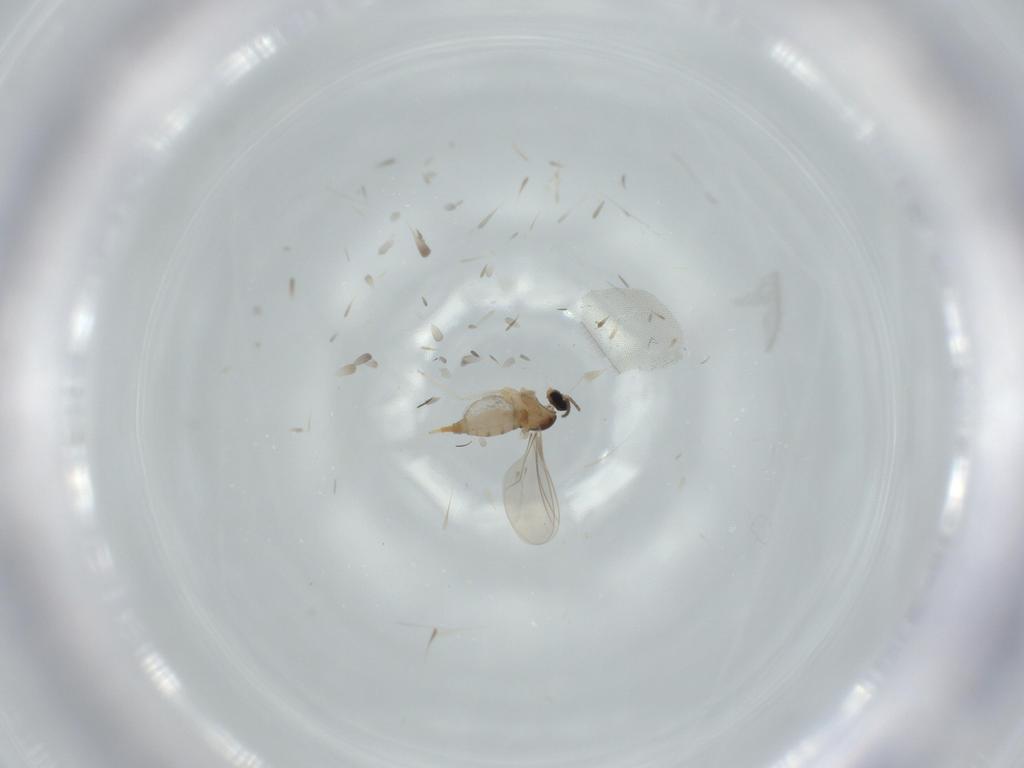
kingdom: Animalia
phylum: Arthropoda
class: Insecta
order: Diptera
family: Cecidomyiidae
